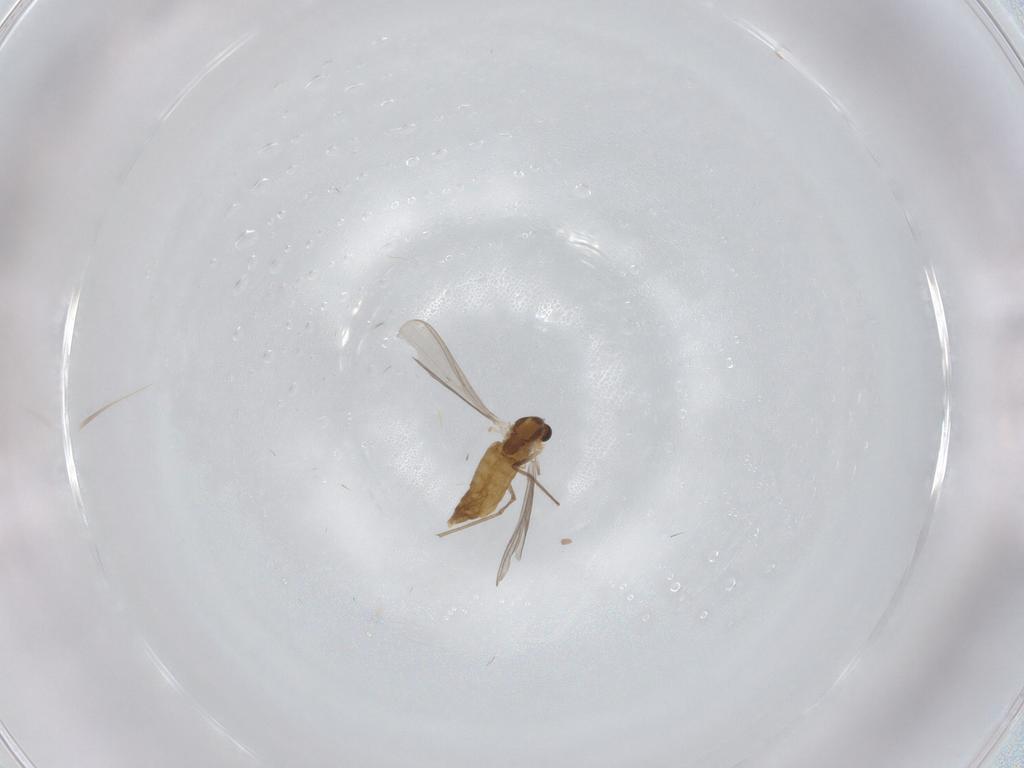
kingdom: Animalia
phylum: Arthropoda
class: Insecta
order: Diptera
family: Chironomidae
